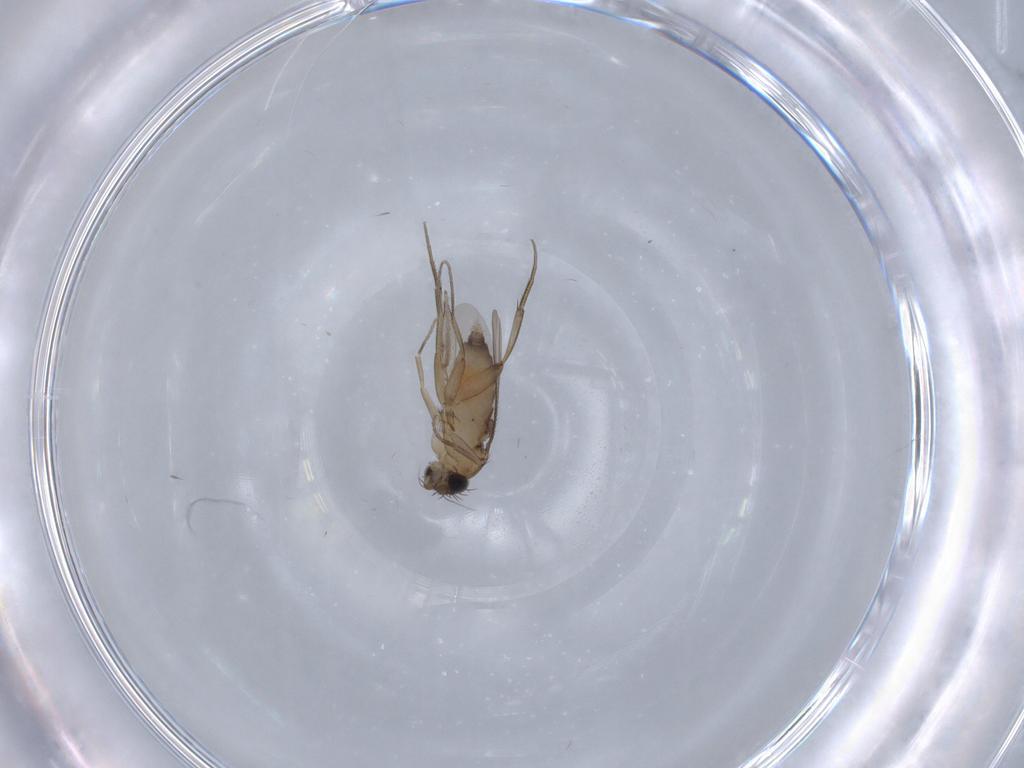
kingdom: Animalia
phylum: Arthropoda
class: Insecta
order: Diptera
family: Phoridae
